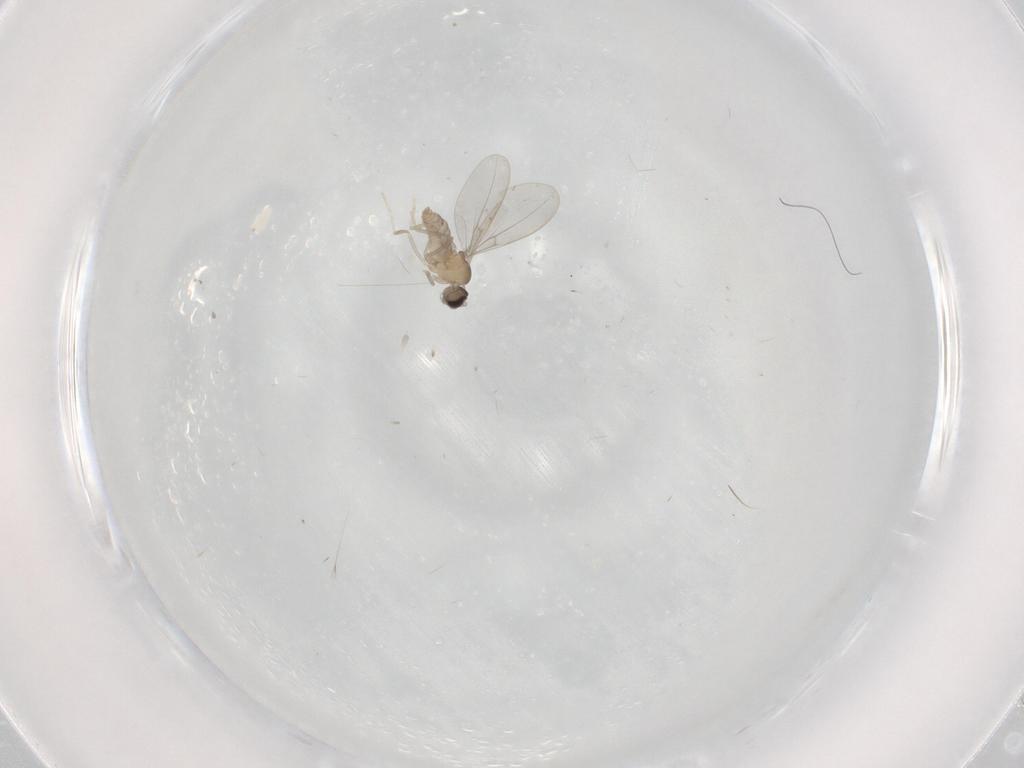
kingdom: Animalia
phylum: Arthropoda
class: Insecta
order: Diptera
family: Cecidomyiidae
